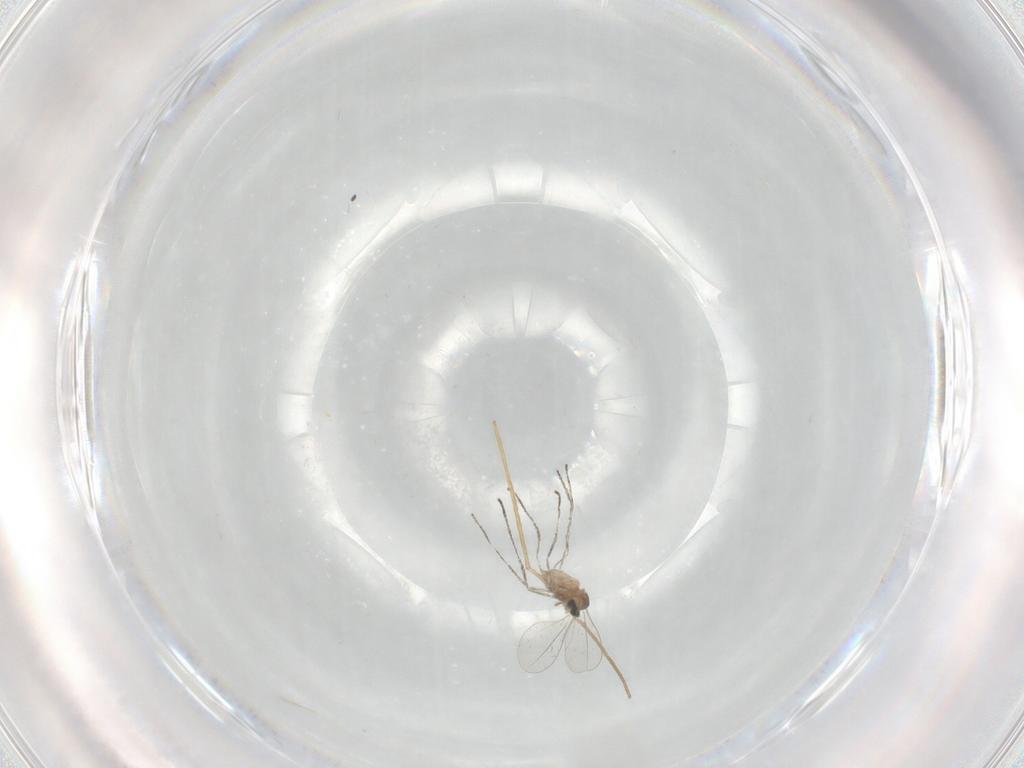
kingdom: Animalia
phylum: Arthropoda
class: Insecta
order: Diptera
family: Cecidomyiidae
